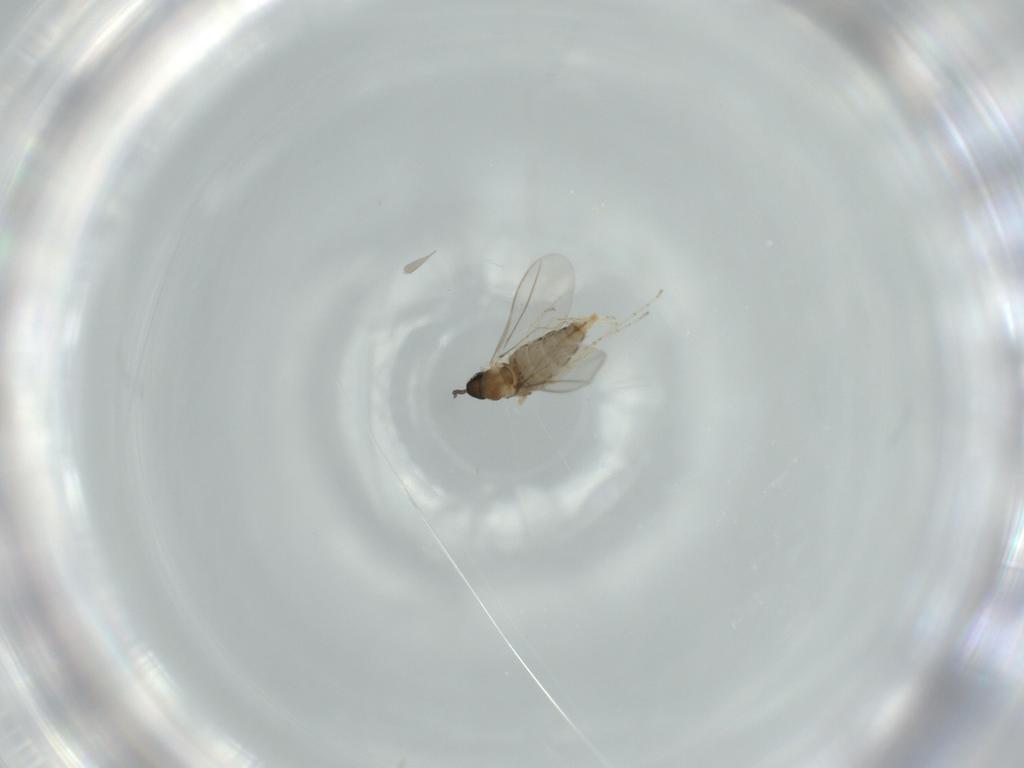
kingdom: Animalia
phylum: Arthropoda
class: Insecta
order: Diptera
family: Cecidomyiidae
